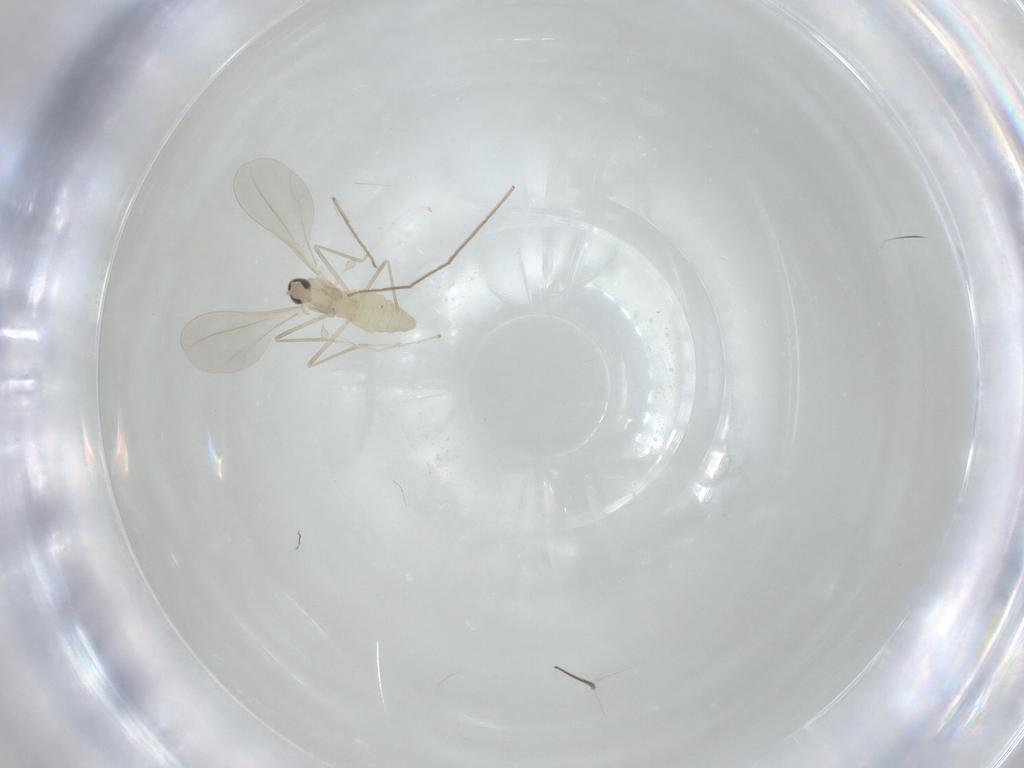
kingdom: Animalia
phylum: Arthropoda
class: Insecta
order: Diptera
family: Cecidomyiidae
